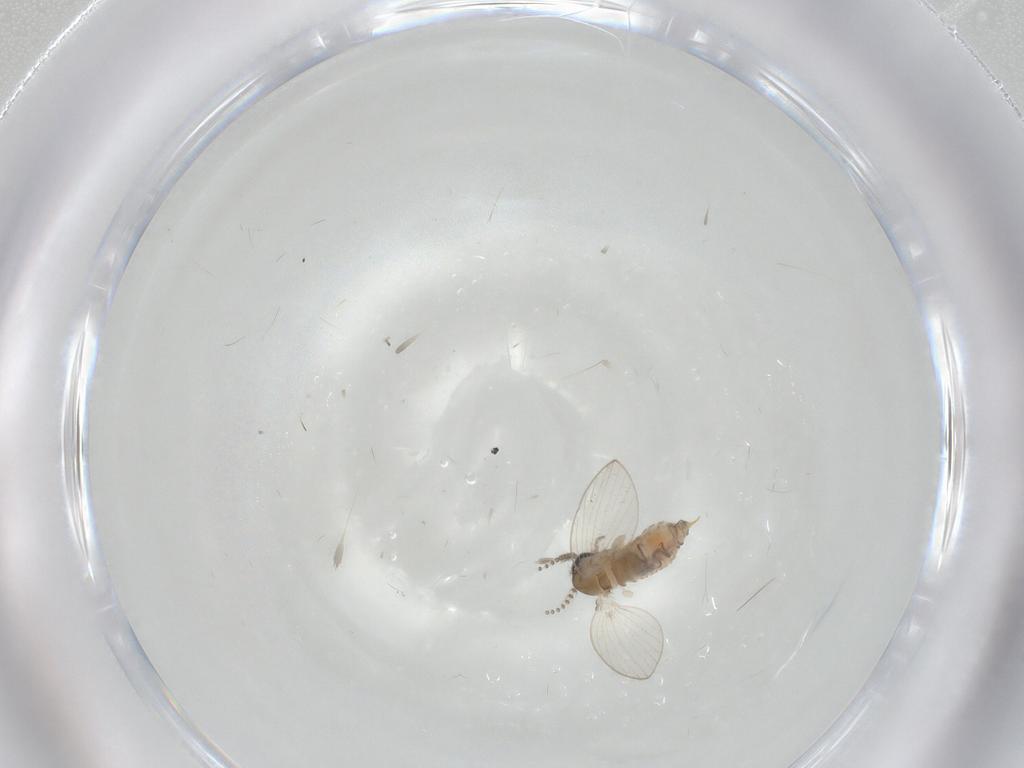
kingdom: Animalia
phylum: Arthropoda
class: Insecta
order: Diptera
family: Psychodidae
